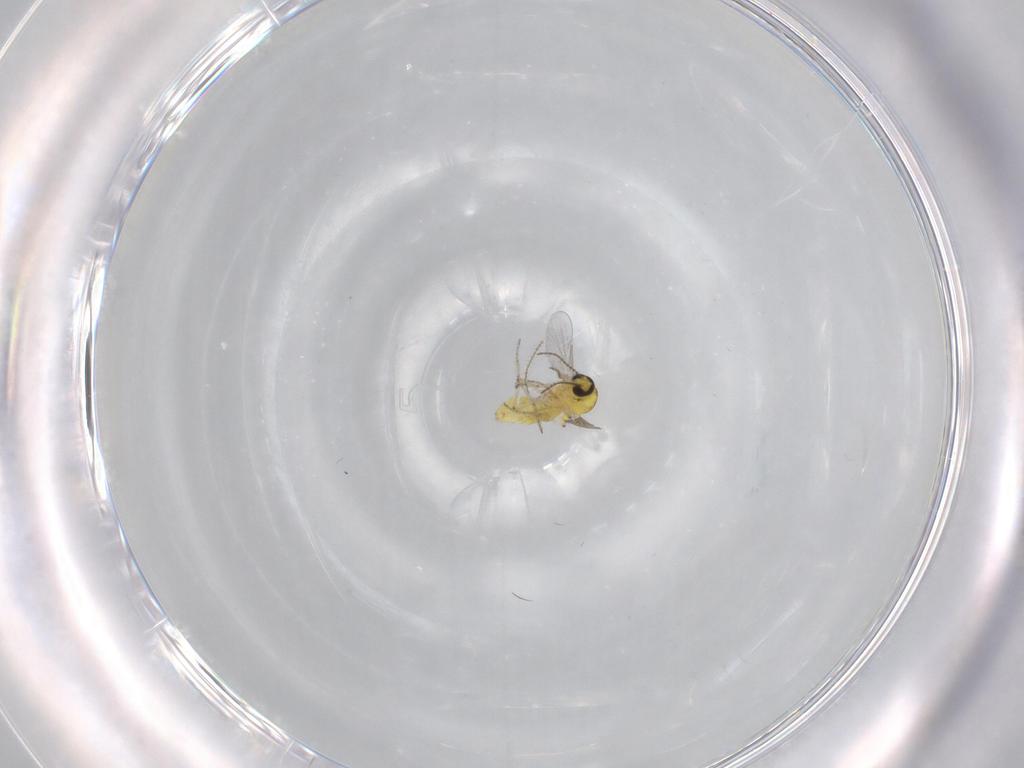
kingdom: Animalia
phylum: Arthropoda
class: Insecta
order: Diptera
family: Ceratopogonidae
